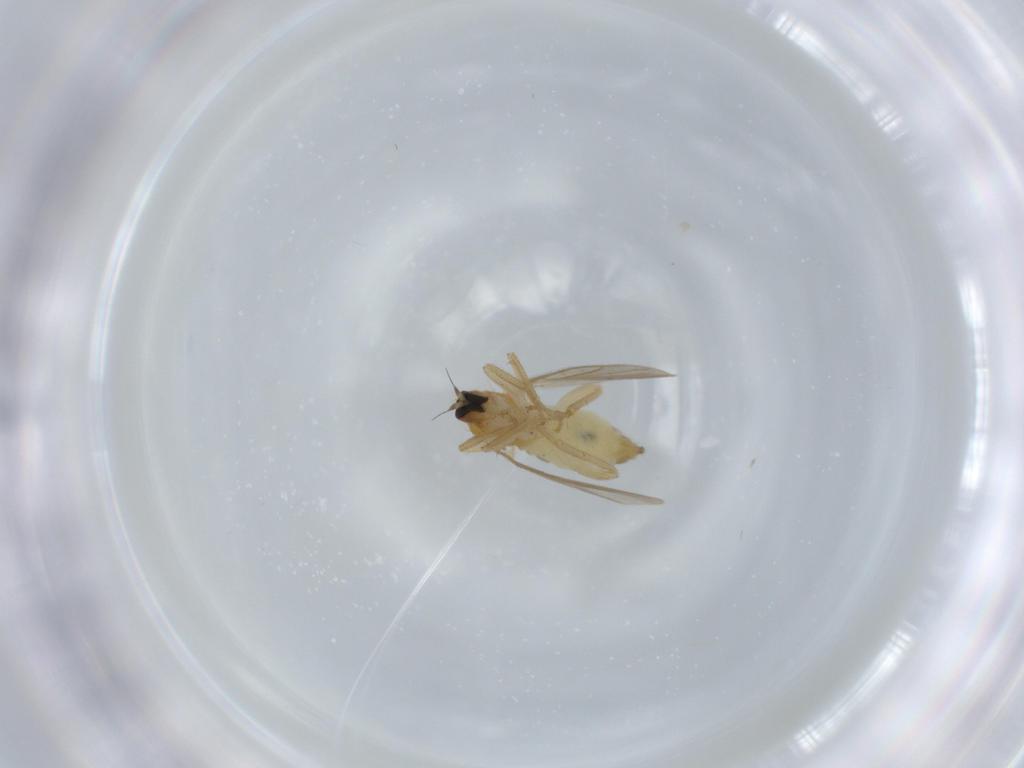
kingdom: Animalia
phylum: Arthropoda
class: Insecta
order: Diptera
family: Hybotidae
